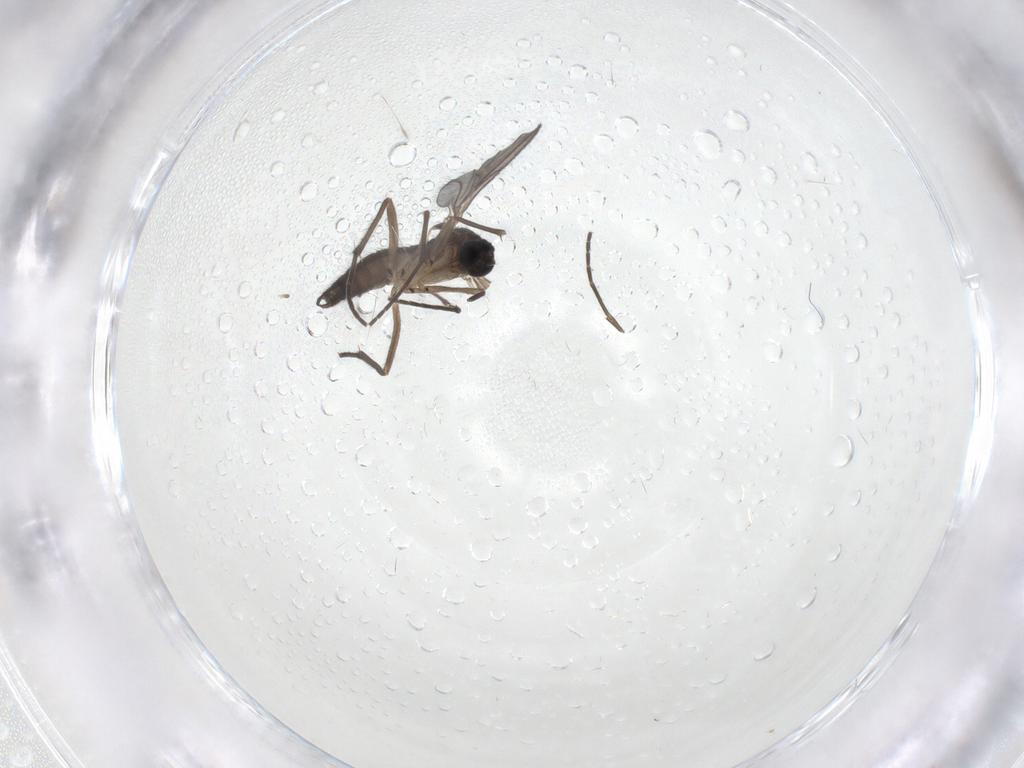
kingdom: Animalia
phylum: Arthropoda
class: Insecta
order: Diptera
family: Sciaridae
